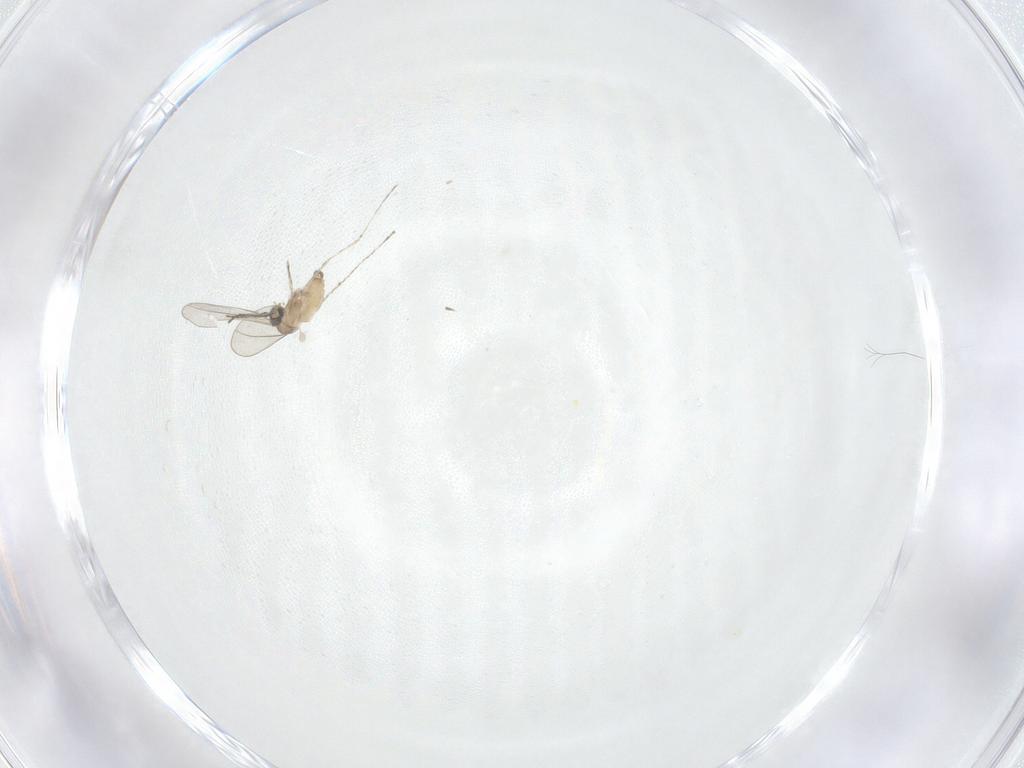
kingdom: Animalia
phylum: Arthropoda
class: Insecta
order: Diptera
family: Cecidomyiidae
